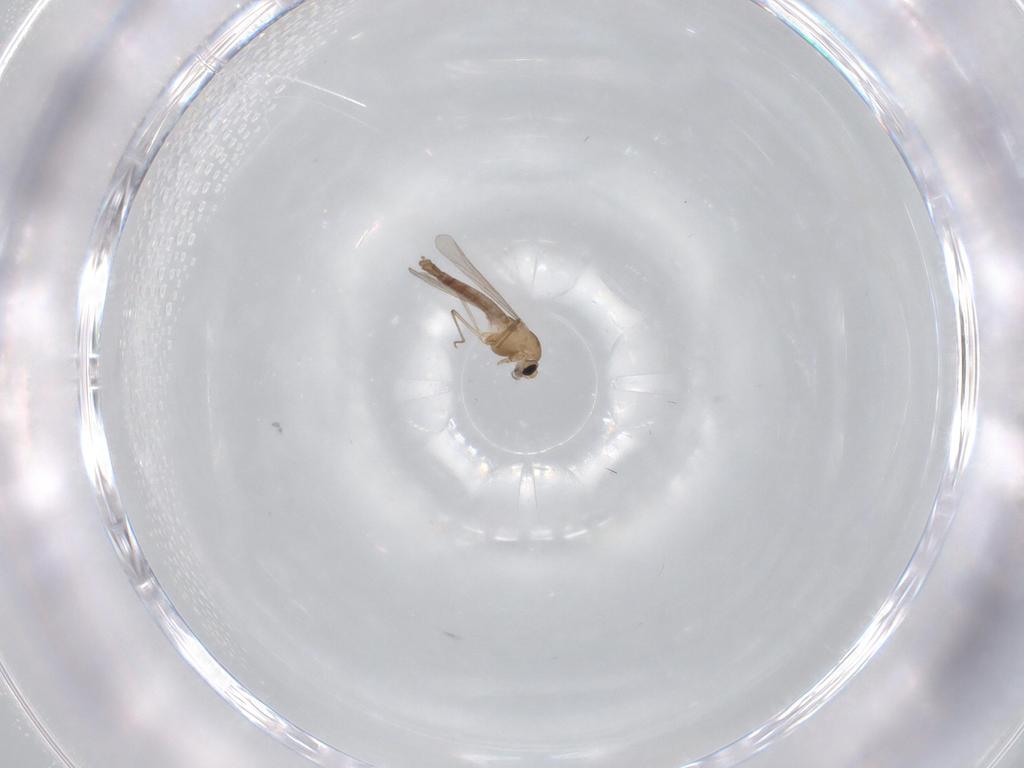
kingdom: Animalia
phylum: Arthropoda
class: Insecta
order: Diptera
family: Chironomidae
